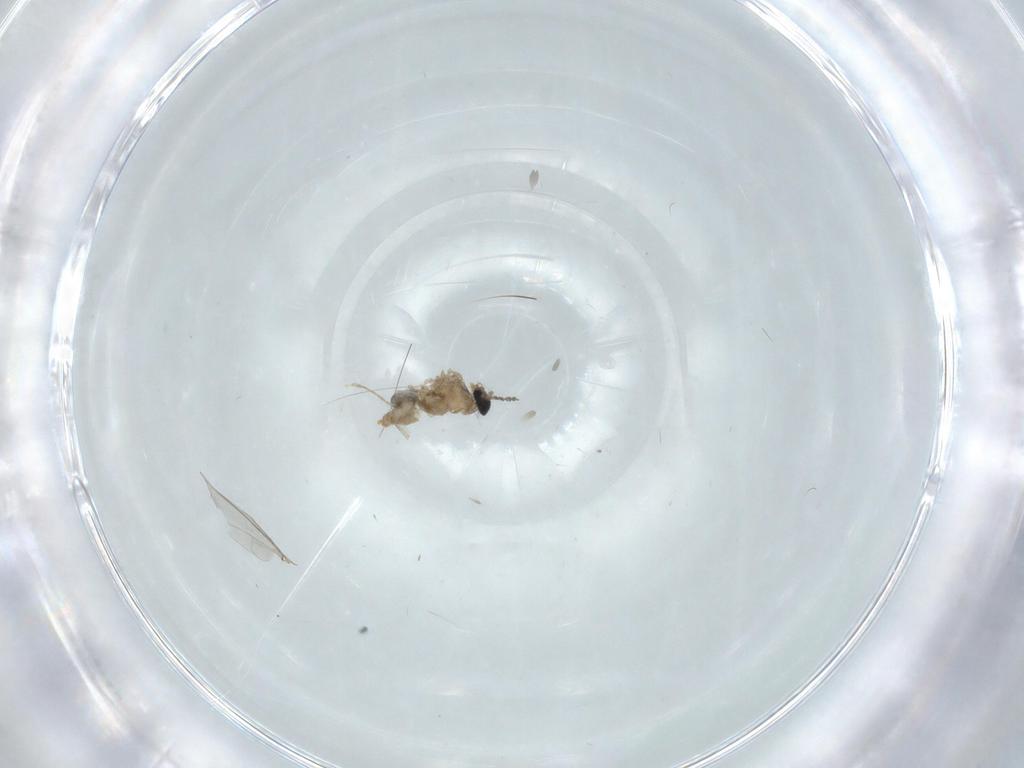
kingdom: Animalia
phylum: Arthropoda
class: Insecta
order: Diptera
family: Cecidomyiidae
